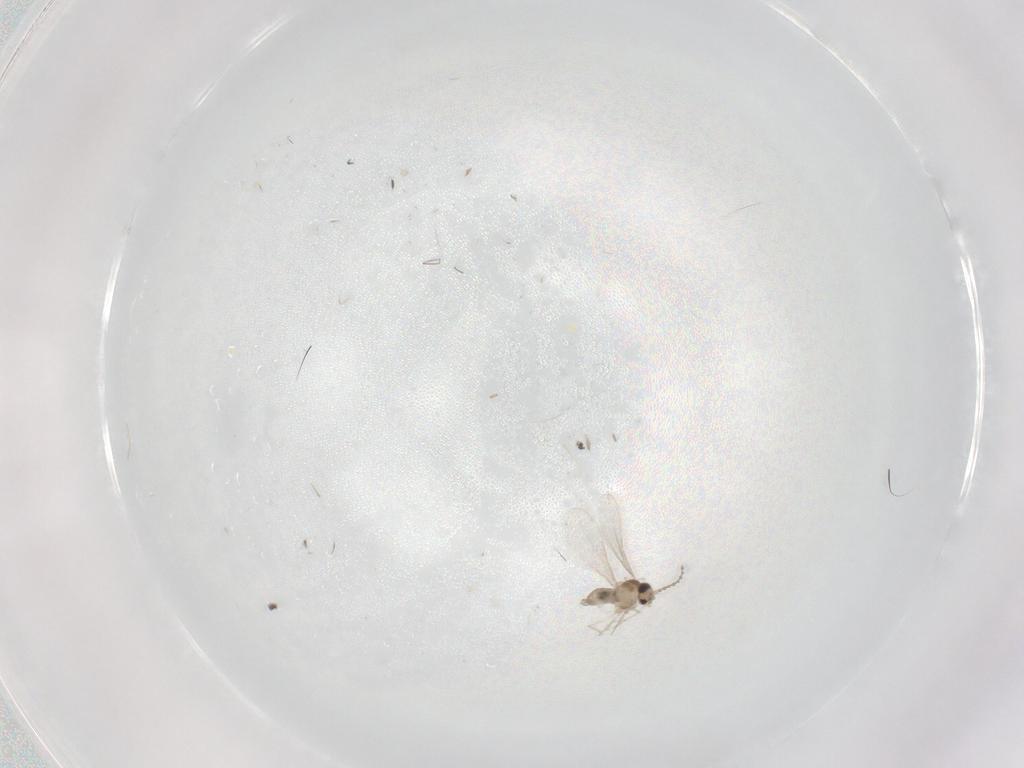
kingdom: Animalia
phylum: Arthropoda
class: Insecta
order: Diptera
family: Cecidomyiidae
